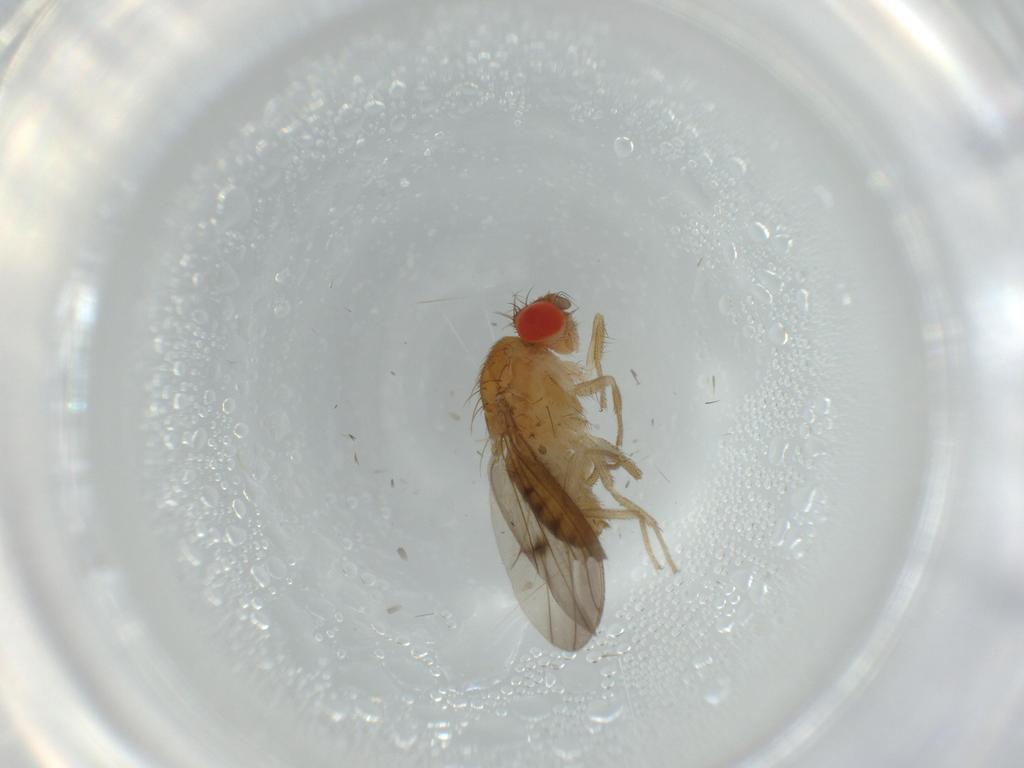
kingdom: Animalia
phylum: Arthropoda
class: Insecta
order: Diptera
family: Drosophilidae
